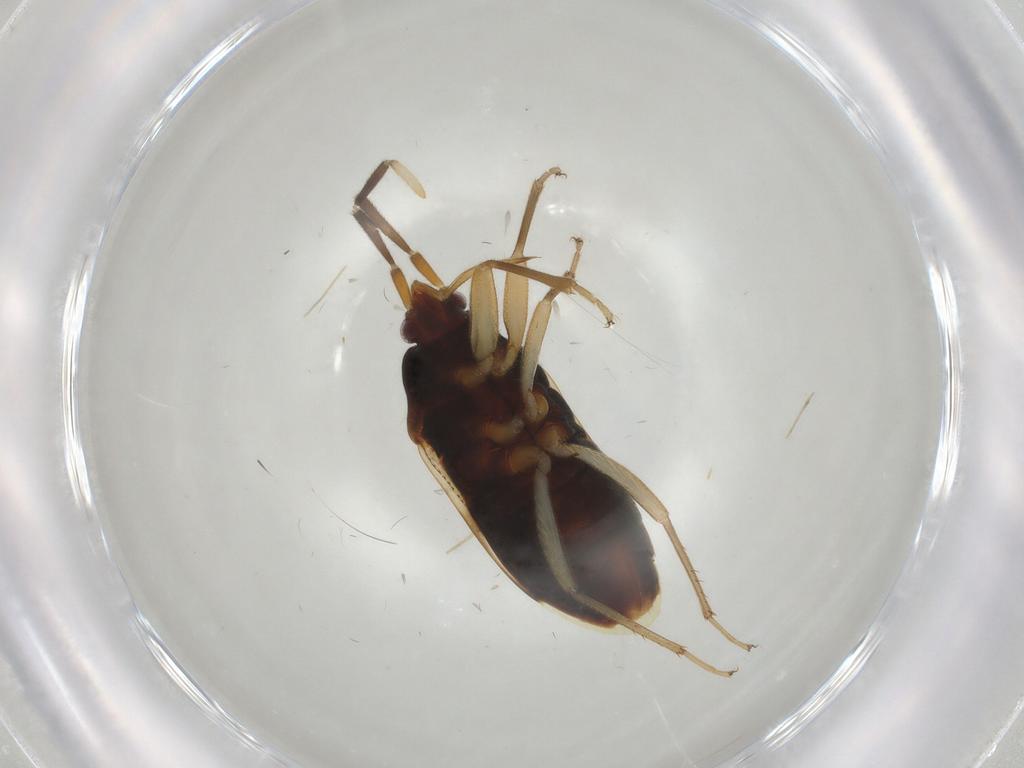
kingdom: Animalia
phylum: Arthropoda
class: Insecta
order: Hemiptera
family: Rhyparochromidae
